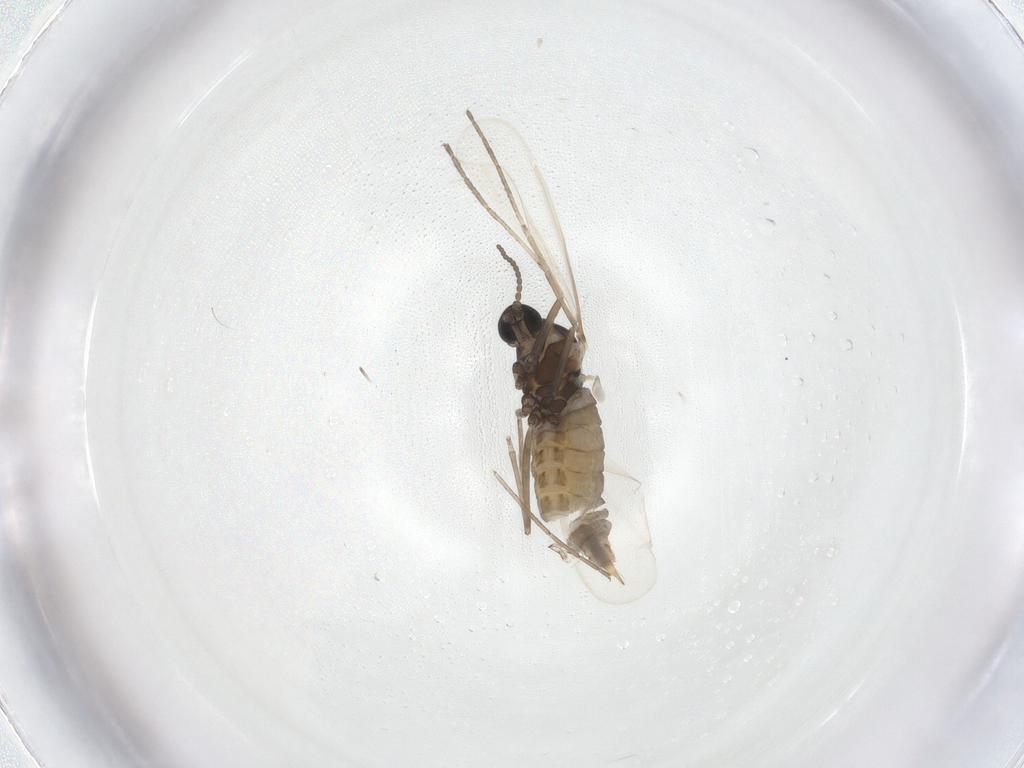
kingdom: Animalia
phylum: Arthropoda
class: Insecta
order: Diptera
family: Cecidomyiidae
